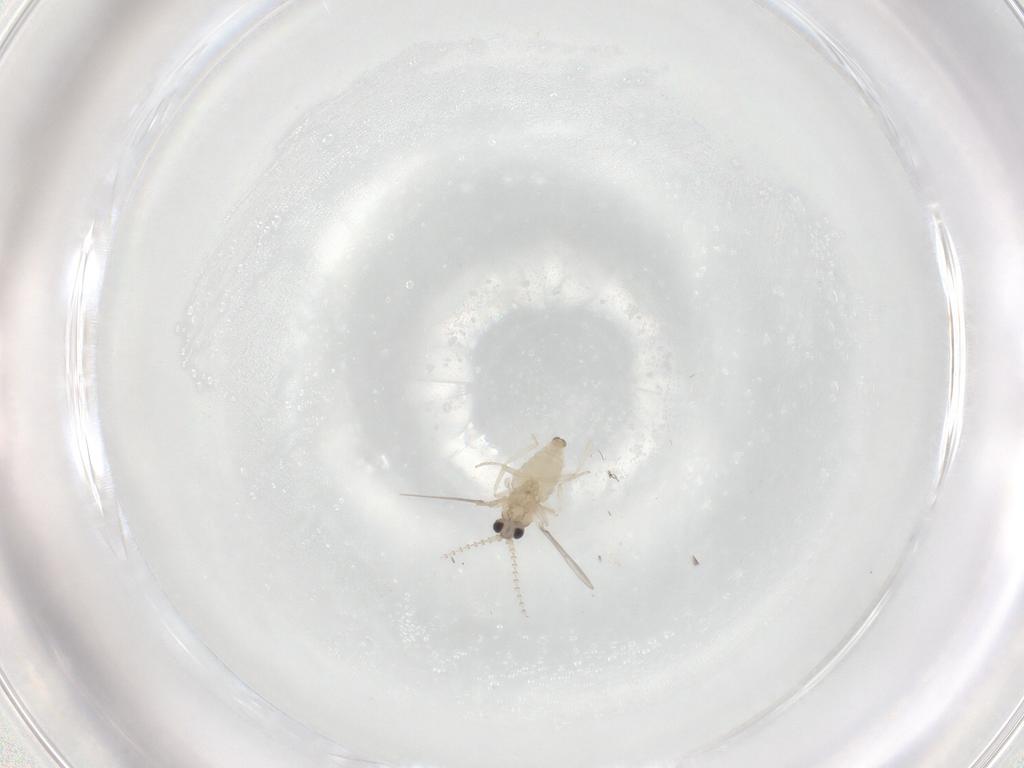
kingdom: Animalia
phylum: Arthropoda
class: Insecta
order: Diptera
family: Cecidomyiidae
